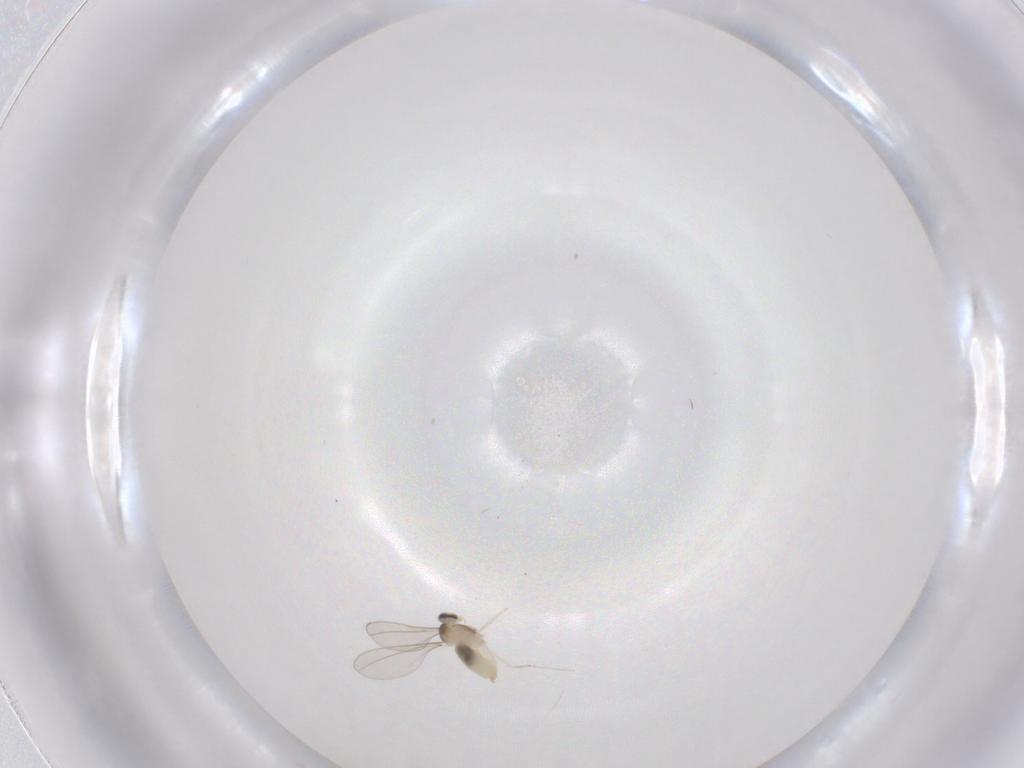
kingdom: Animalia
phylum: Arthropoda
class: Insecta
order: Diptera
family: Cecidomyiidae
